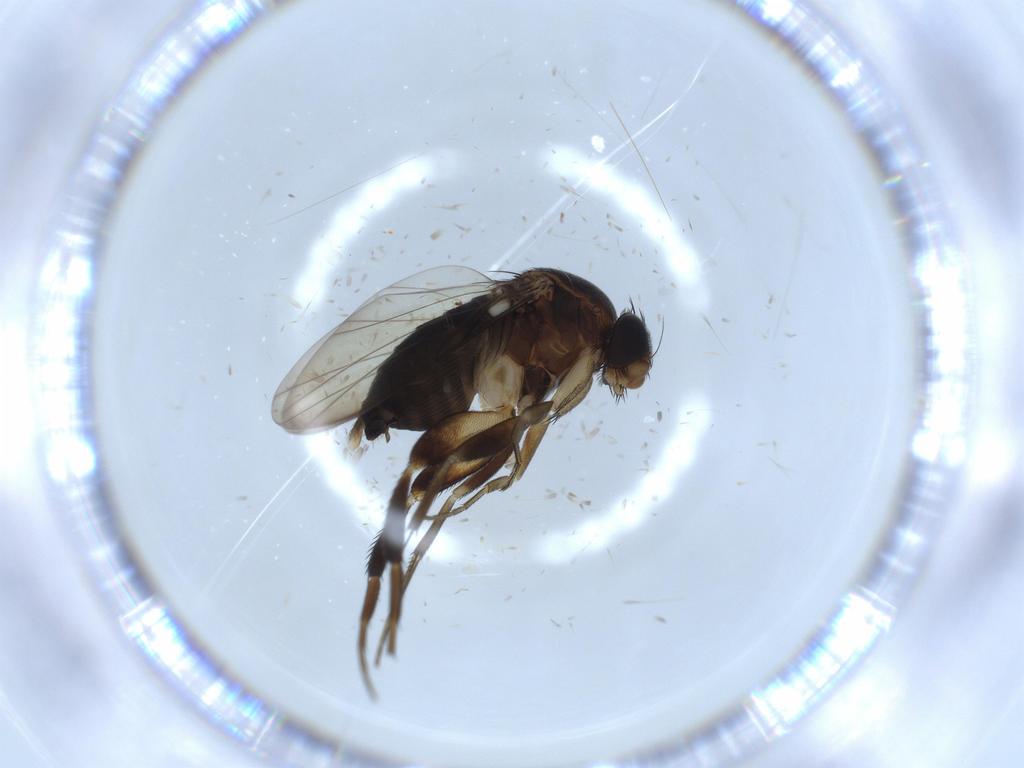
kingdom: Animalia
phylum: Arthropoda
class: Insecta
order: Diptera
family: Phoridae
